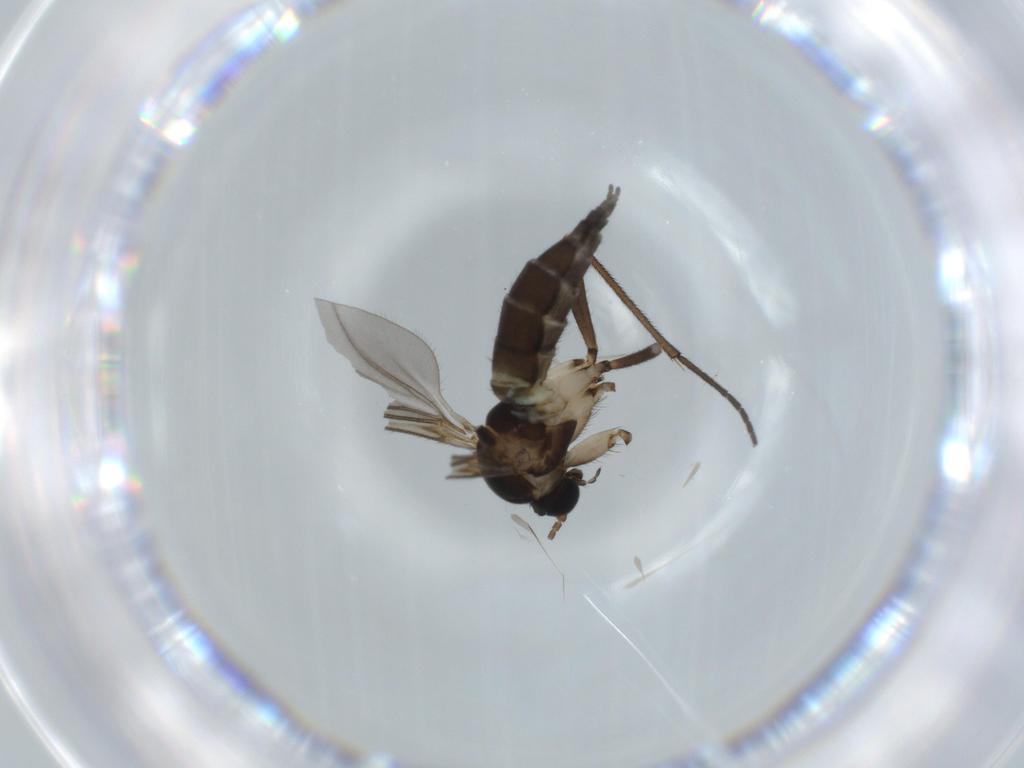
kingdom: Animalia
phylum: Arthropoda
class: Insecta
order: Diptera
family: Sciaridae
